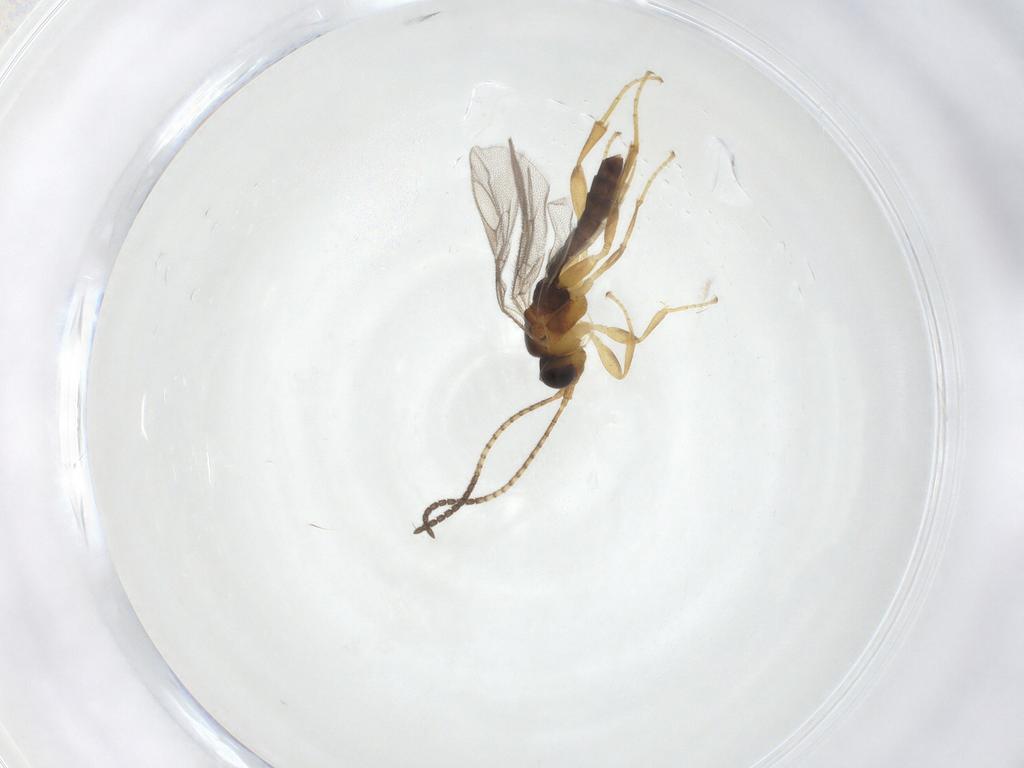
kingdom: Animalia
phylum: Arthropoda
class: Insecta
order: Hymenoptera
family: Ichneumonidae
